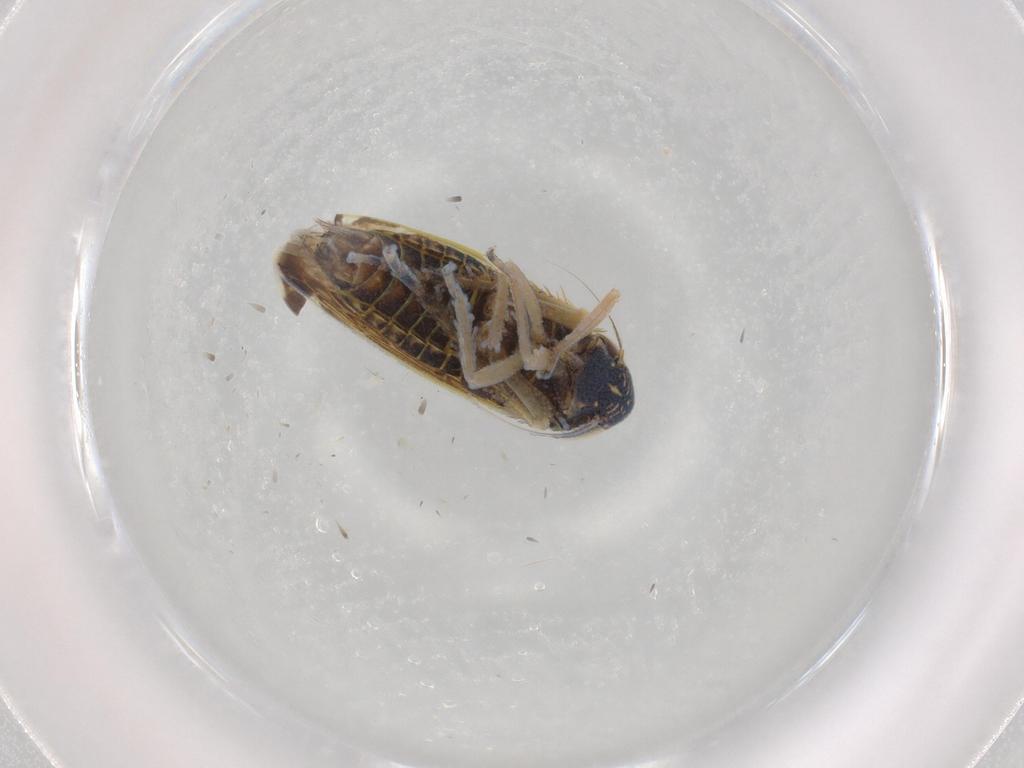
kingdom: Animalia
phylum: Arthropoda
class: Insecta
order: Hemiptera
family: Cicadellidae
